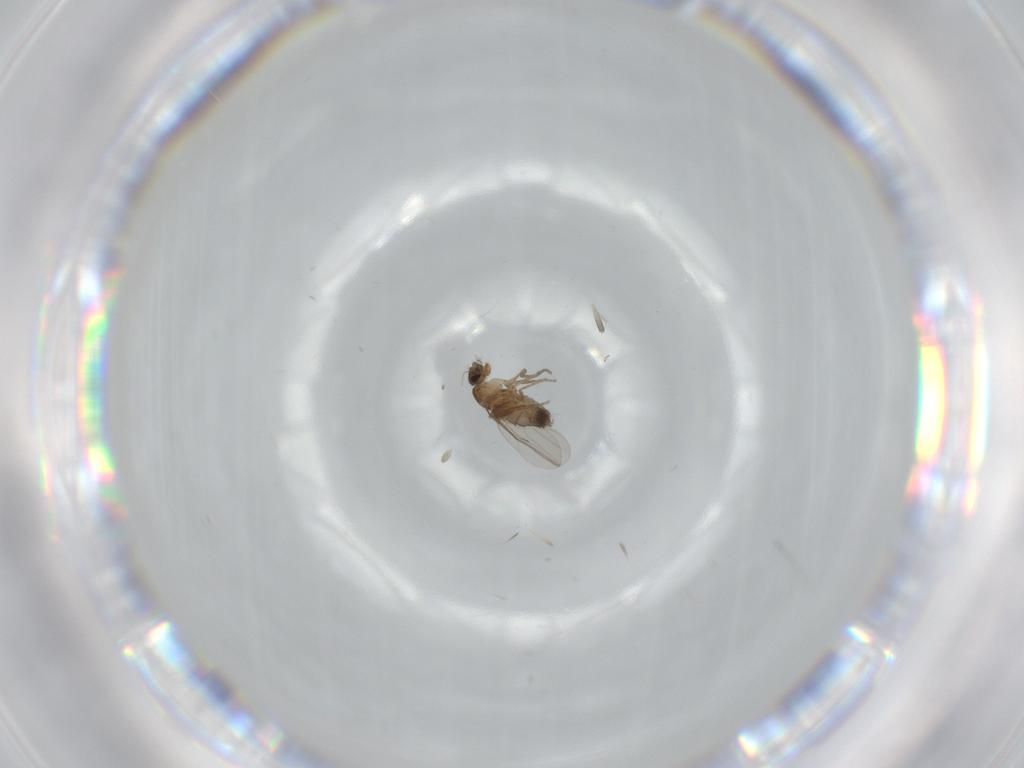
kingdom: Animalia
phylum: Arthropoda
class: Insecta
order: Diptera
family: Phoridae
